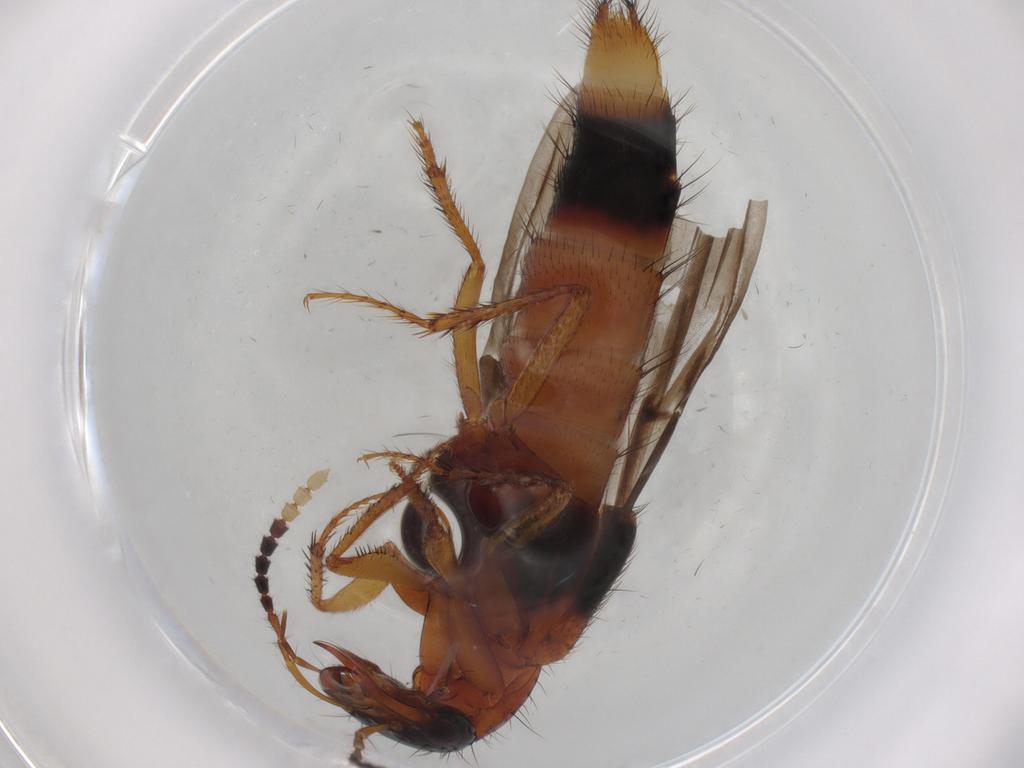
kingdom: Animalia
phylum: Arthropoda
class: Insecta
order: Coleoptera
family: Staphylinidae
